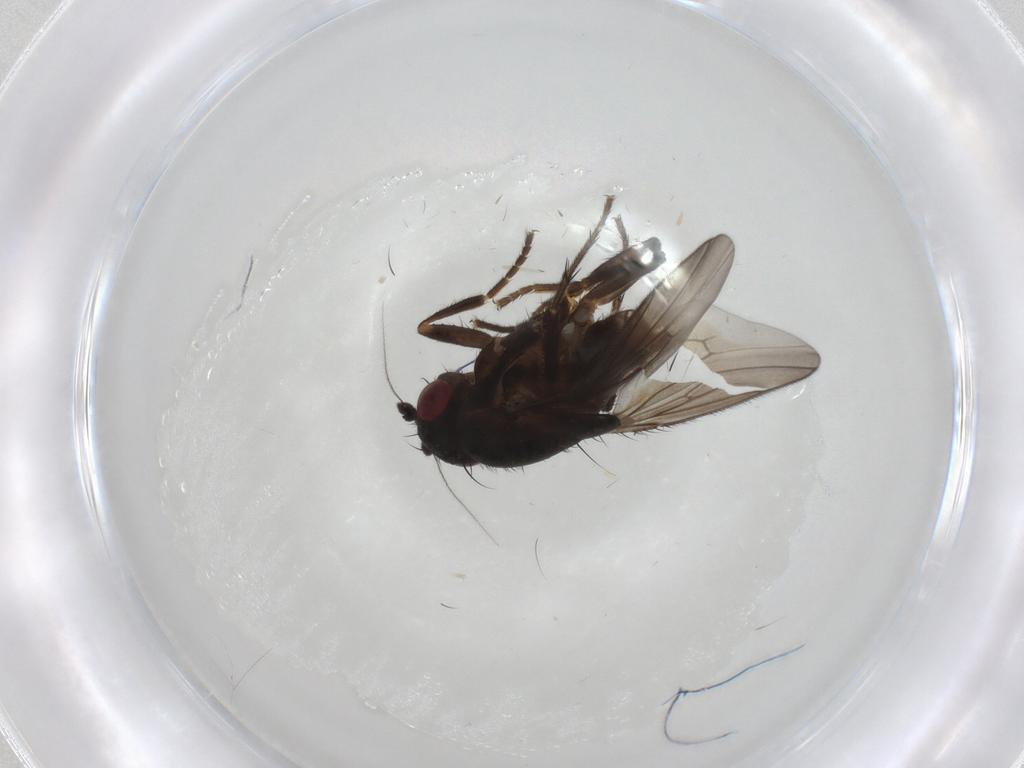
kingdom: Animalia
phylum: Arthropoda
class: Insecta
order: Diptera
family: Sphaeroceridae
